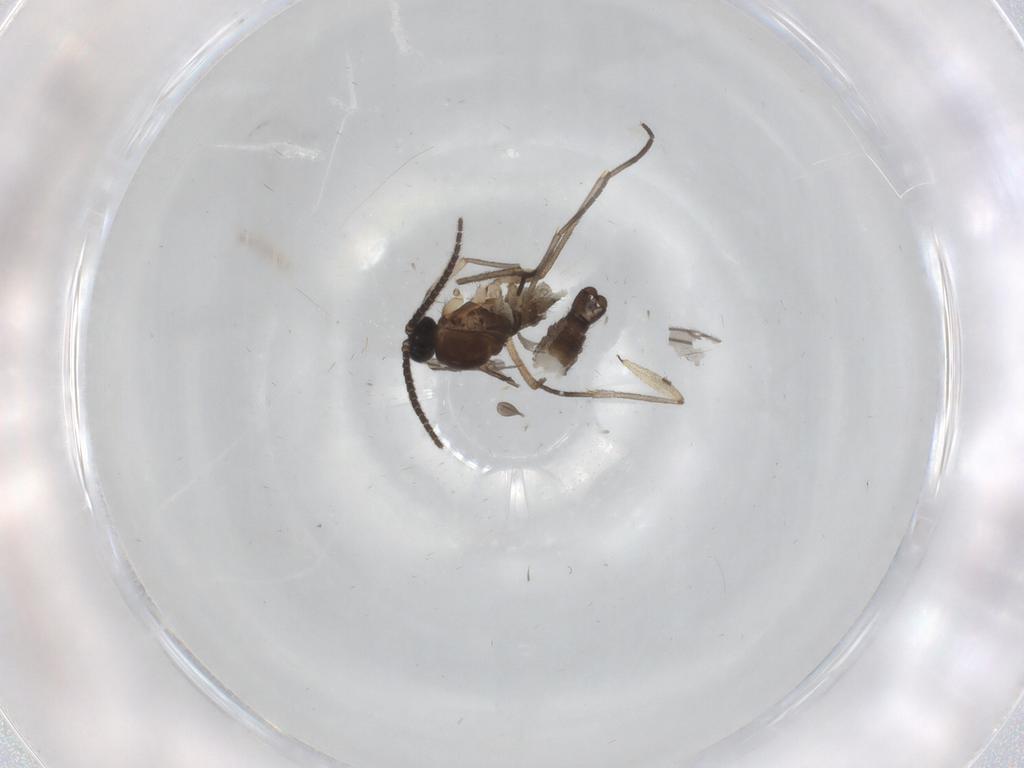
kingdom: Animalia
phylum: Arthropoda
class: Insecta
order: Diptera
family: Sciaridae
